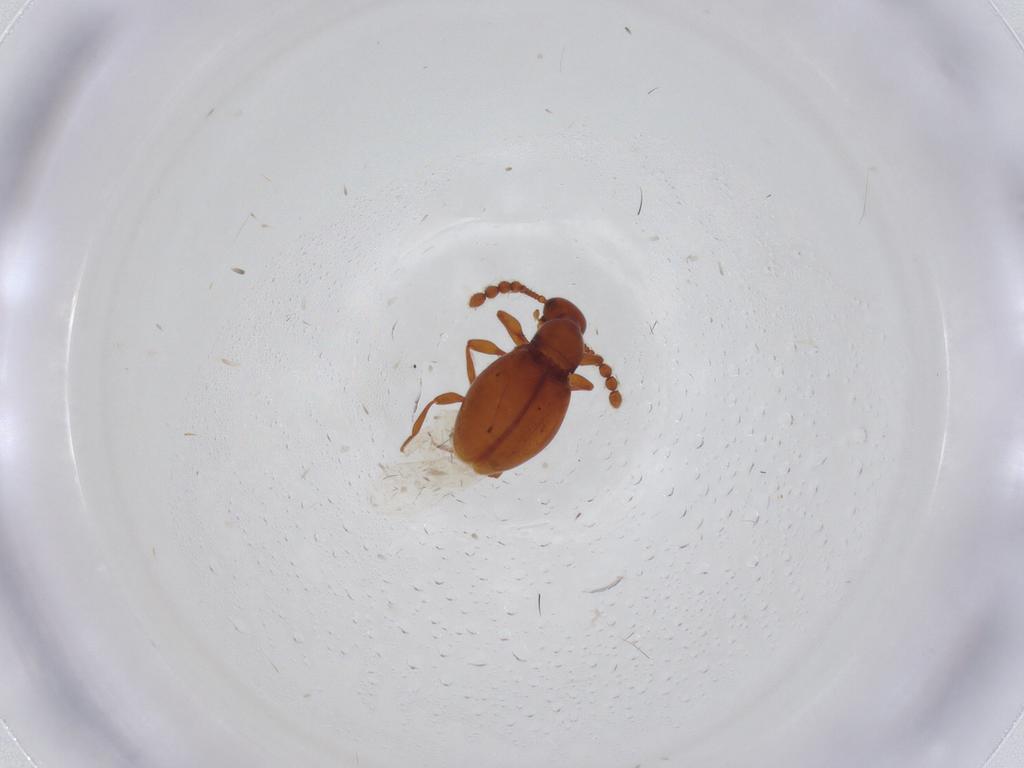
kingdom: Animalia
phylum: Arthropoda
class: Insecta
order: Coleoptera
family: Staphylinidae
